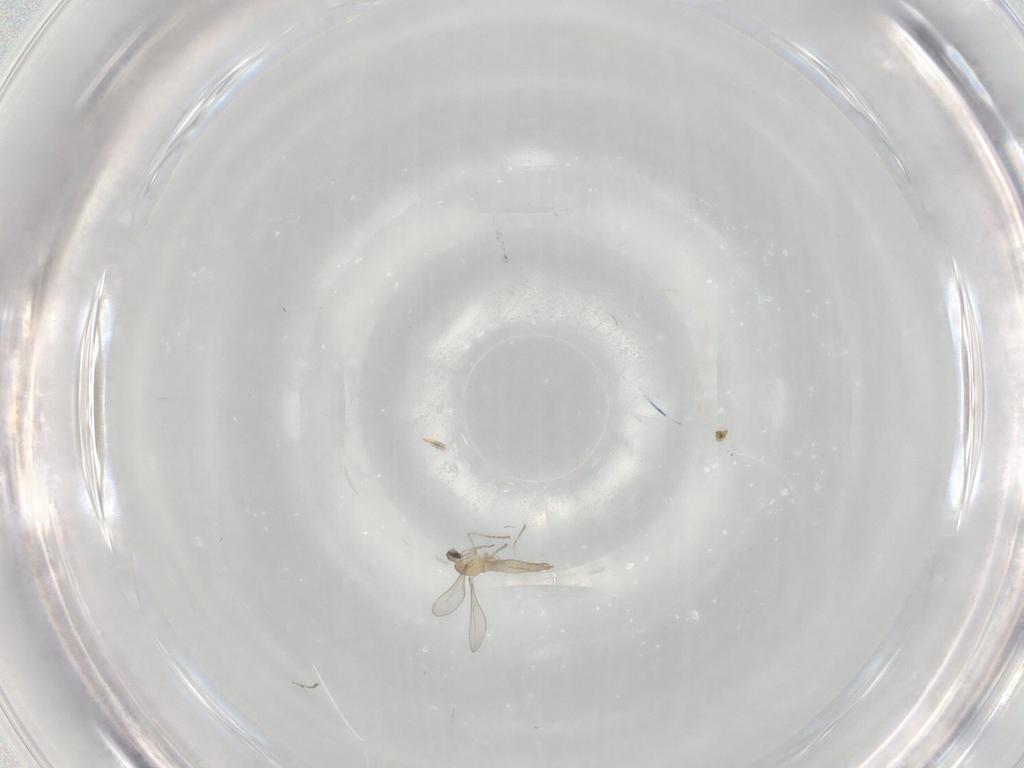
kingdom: Animalia
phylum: Arthropoda
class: Insecta
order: Diptera
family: Cecidomyiidae
